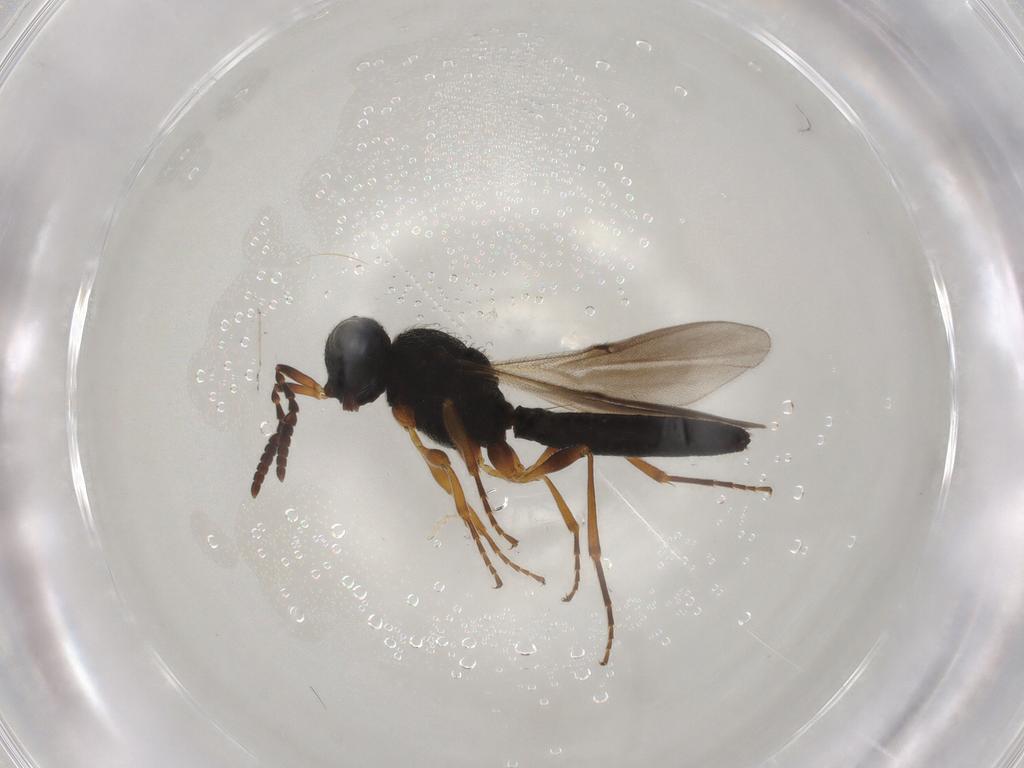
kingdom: Animalia
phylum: Arthropoda
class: Insecta
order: Hymenoptera
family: Scelionidae
